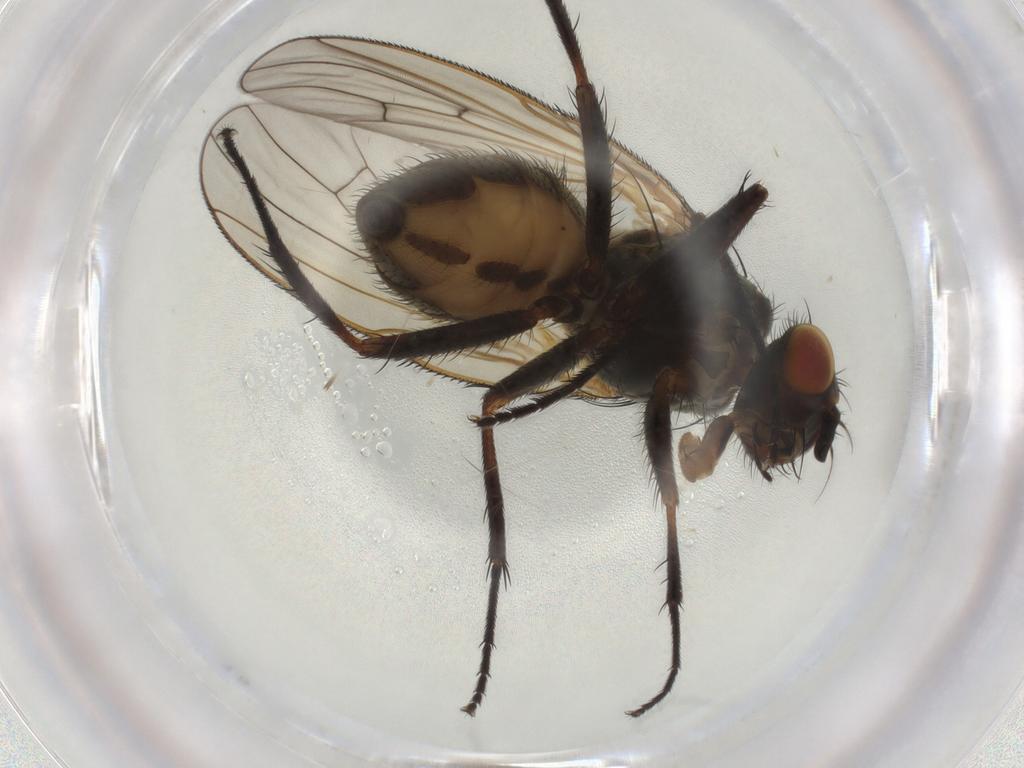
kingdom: Animalia
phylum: Arthropoda
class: Insecta
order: Diptera
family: Anthomyiidae
